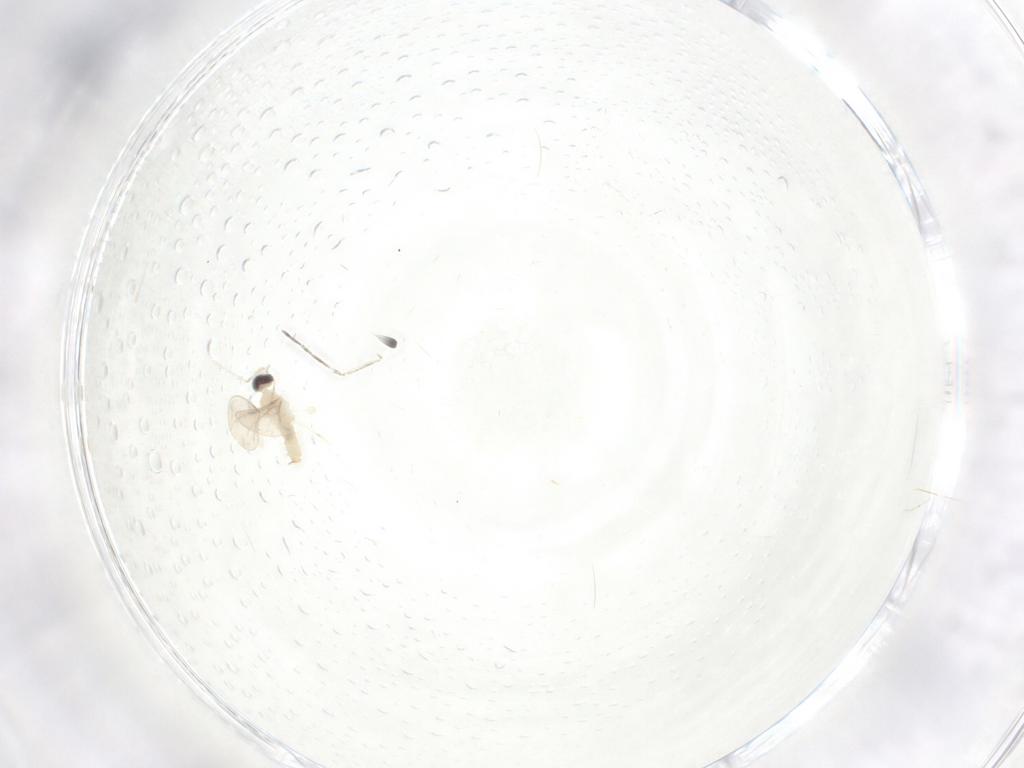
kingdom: Animalia
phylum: Arthropoda
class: Insecta
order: Diptera
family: Cecidomyiidae
